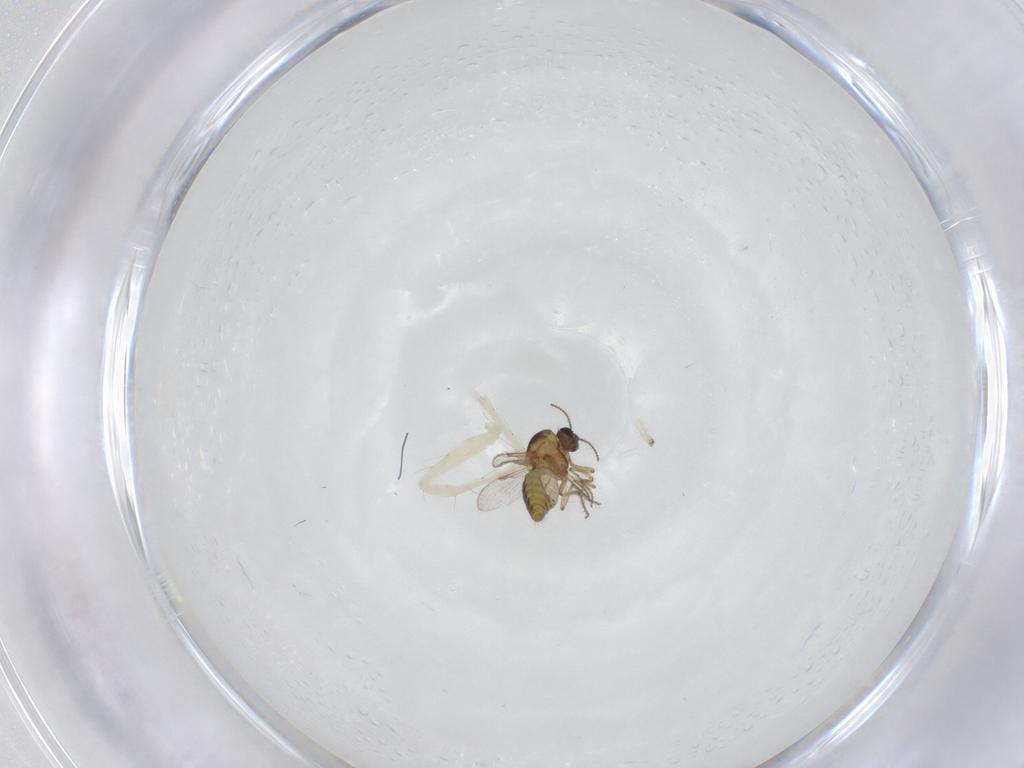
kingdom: Animalia
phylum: Arthropoda
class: Insecta
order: Diptera
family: Ceratopogonidae
